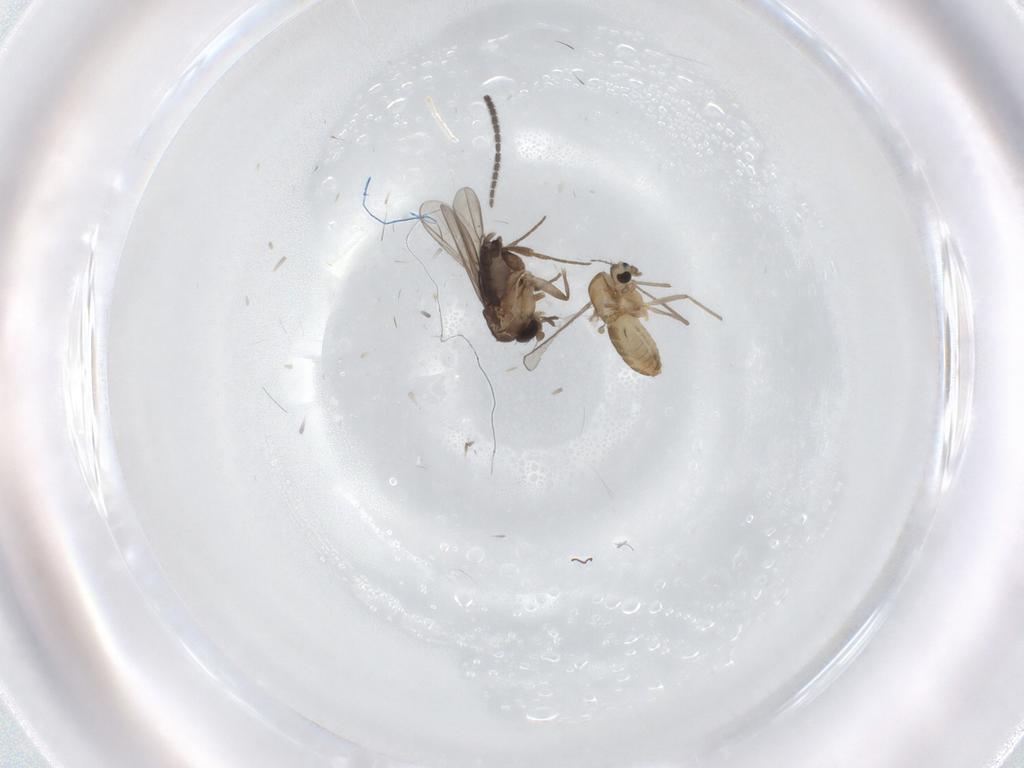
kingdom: Animalia
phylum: Arthropoda
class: Insecta
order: Diptera
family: Chironomidae
